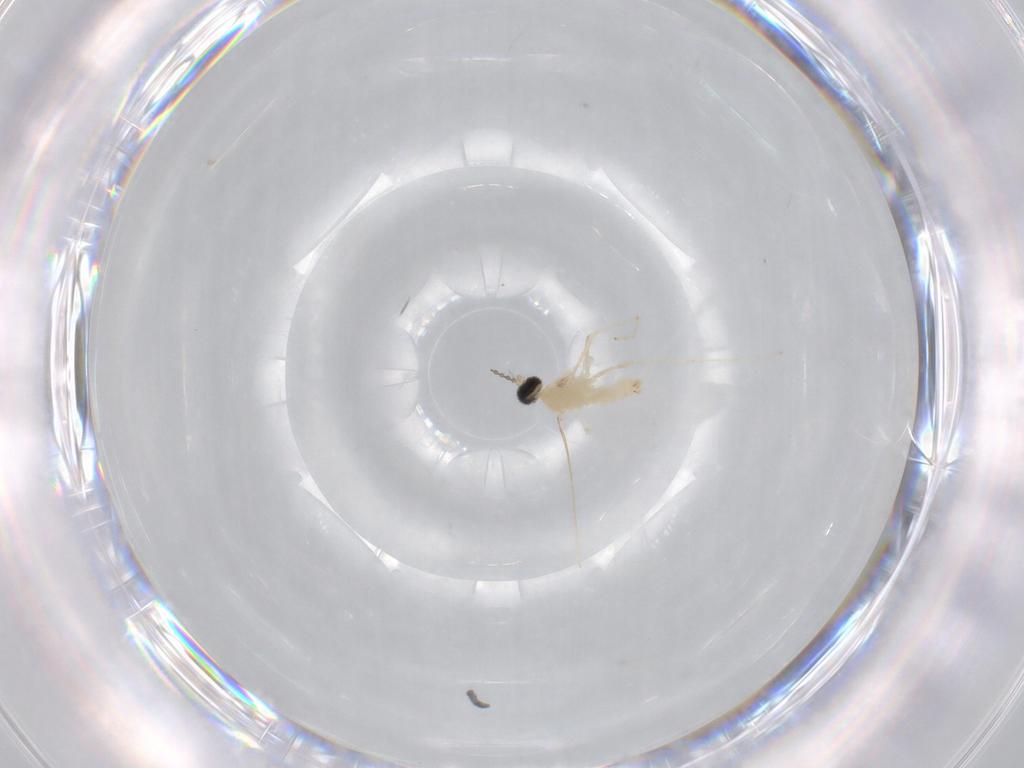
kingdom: Animalia
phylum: Arthropoda
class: Insecta
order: Diptera
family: Cecidomyiidae
